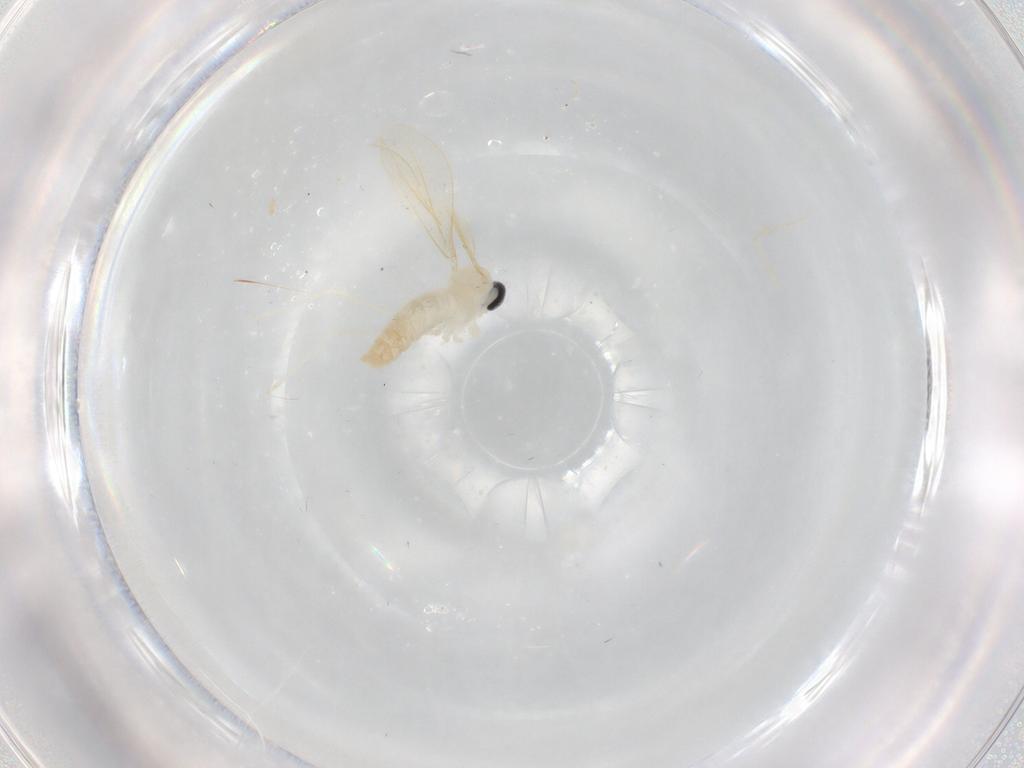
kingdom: Animalia
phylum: Arthropoda
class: Insecta
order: Diptera
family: Cecidomyiidae
